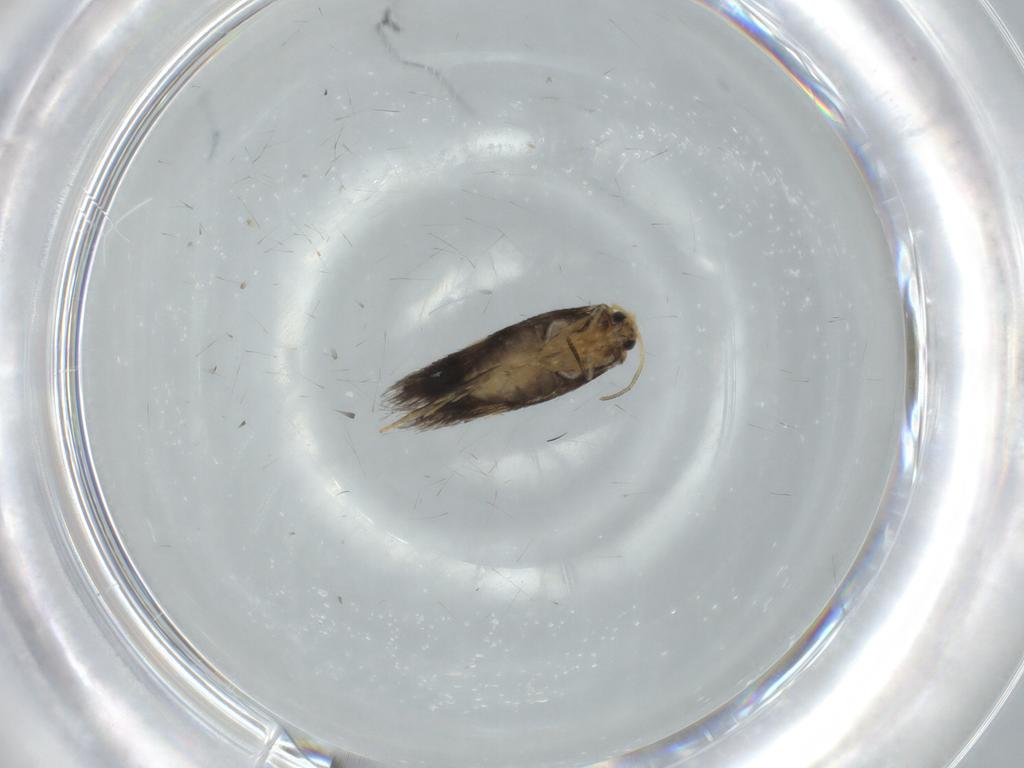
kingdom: Animalia
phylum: Arthropoda
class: Insecta
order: Lepidoptera
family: Nepticulidae
